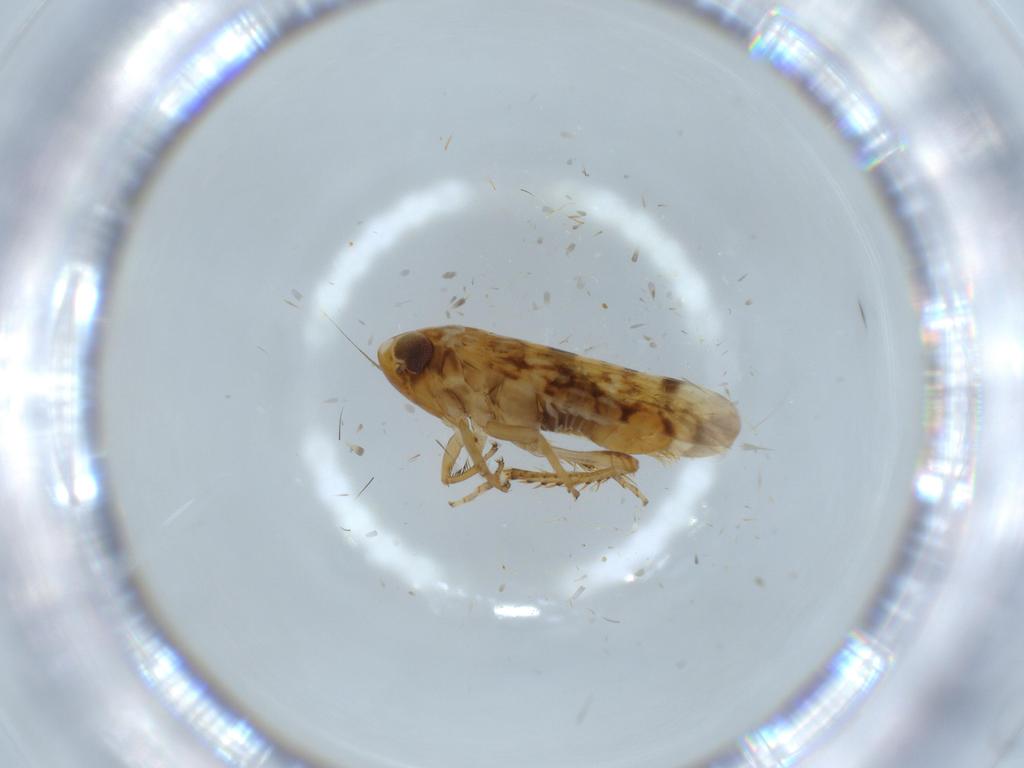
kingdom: Animalia
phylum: Arthropoda
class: Insecta
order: Hemiptera
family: Cicadellidae
